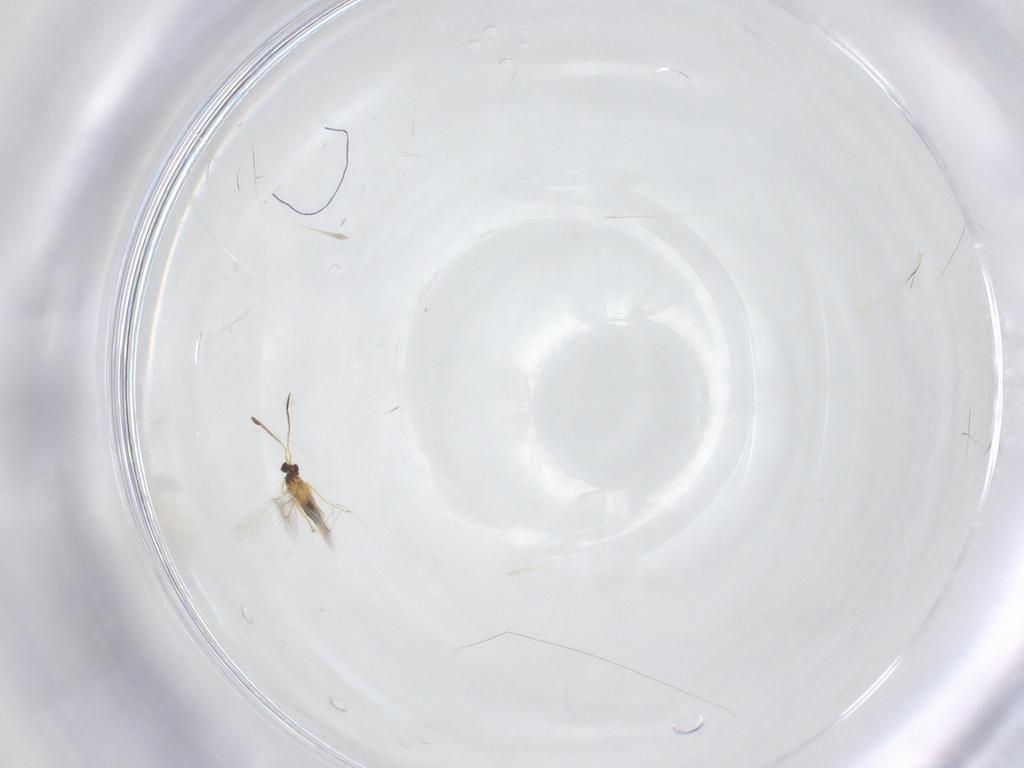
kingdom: Animalia
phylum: Arthropoda
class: Insecta
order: Hymenoptera
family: Mymaridae
